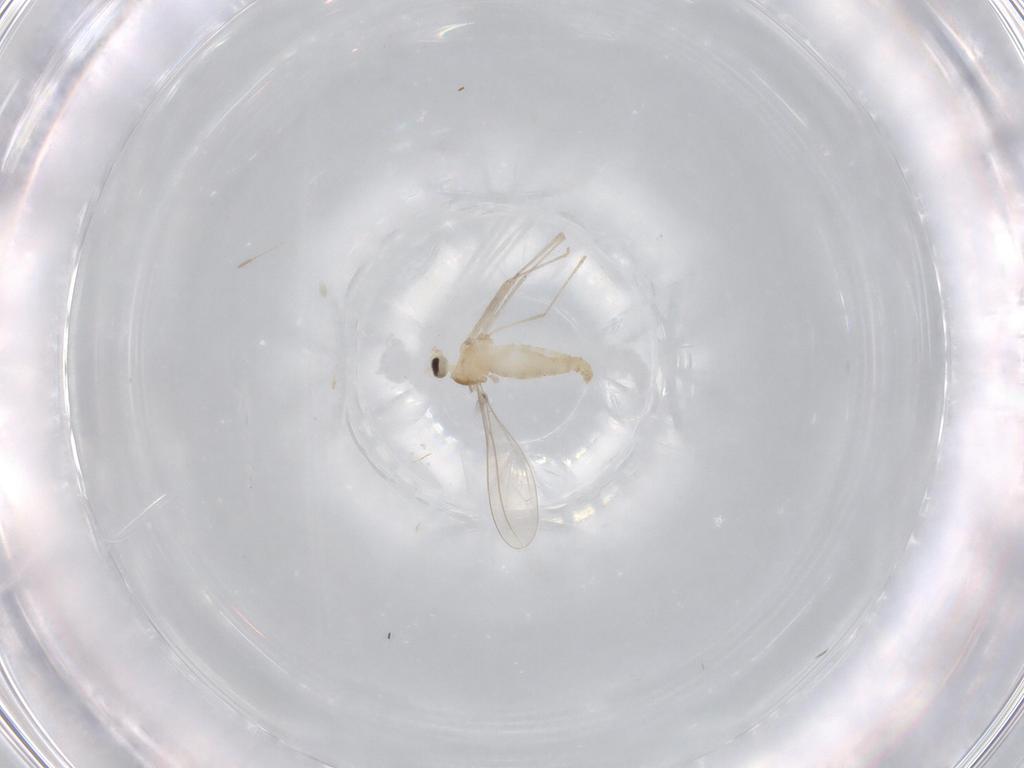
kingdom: Animalia
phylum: Arthropoda
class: Insecta
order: Diptera
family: Cecidomyiidae
